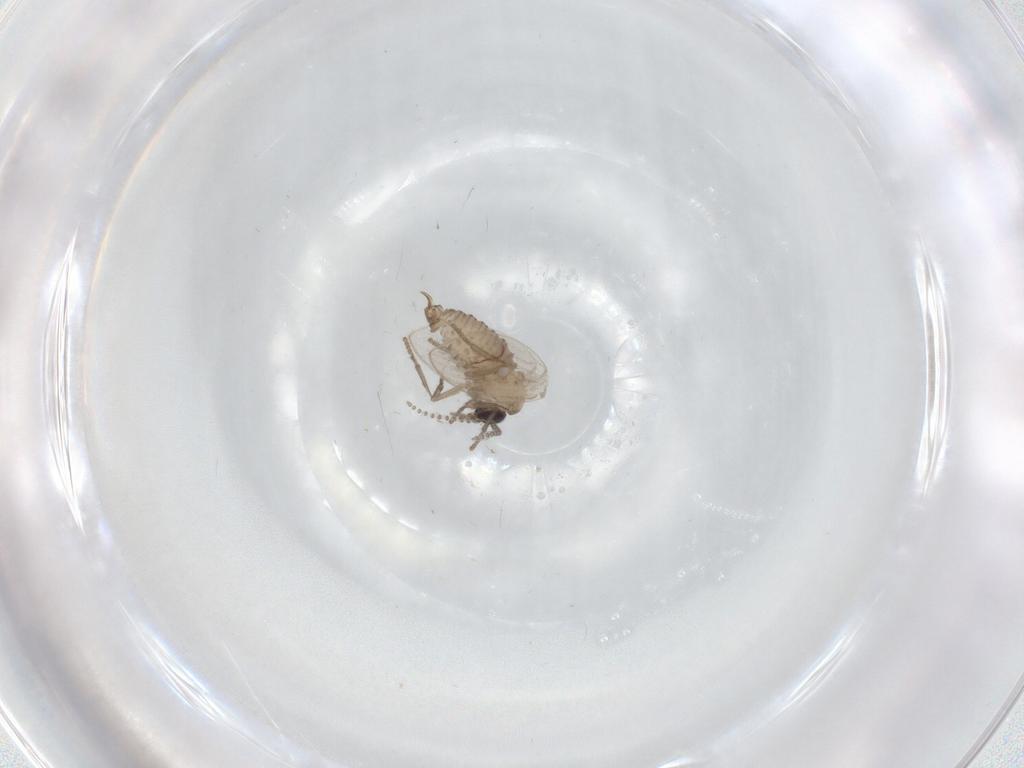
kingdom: Animalia
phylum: Arthropoda
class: Insecta
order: Diptera
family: Psychodidae
